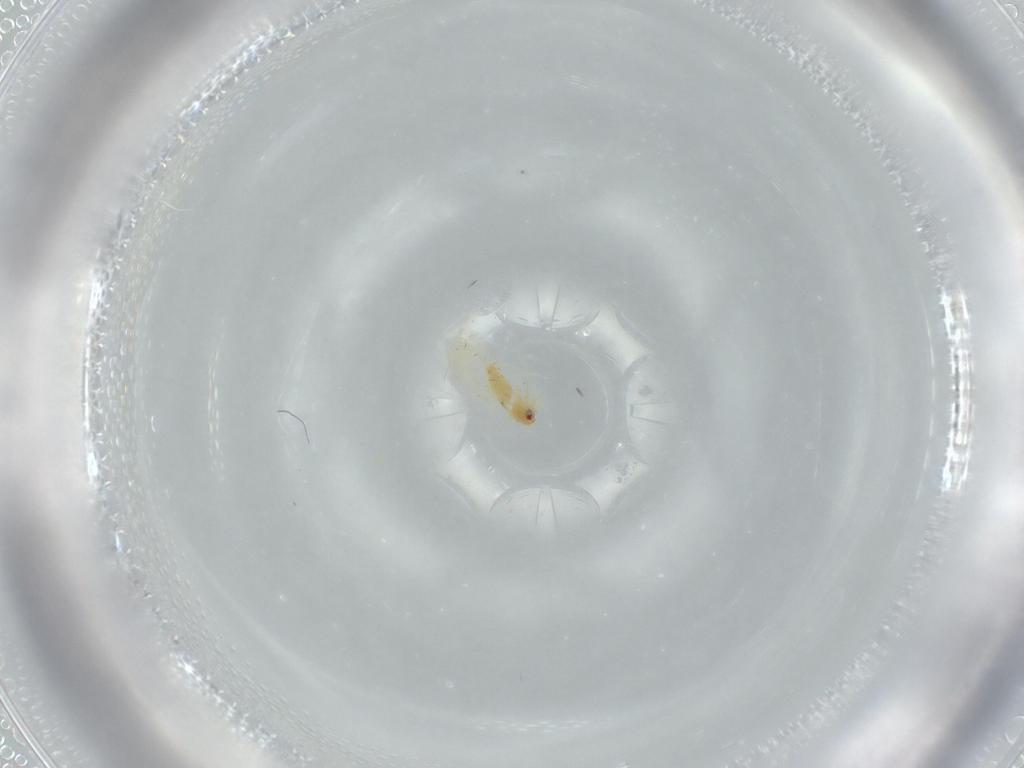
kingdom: Animalia
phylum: Arthropoda
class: Insecta
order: Hemiptera
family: Aleyrodidae
